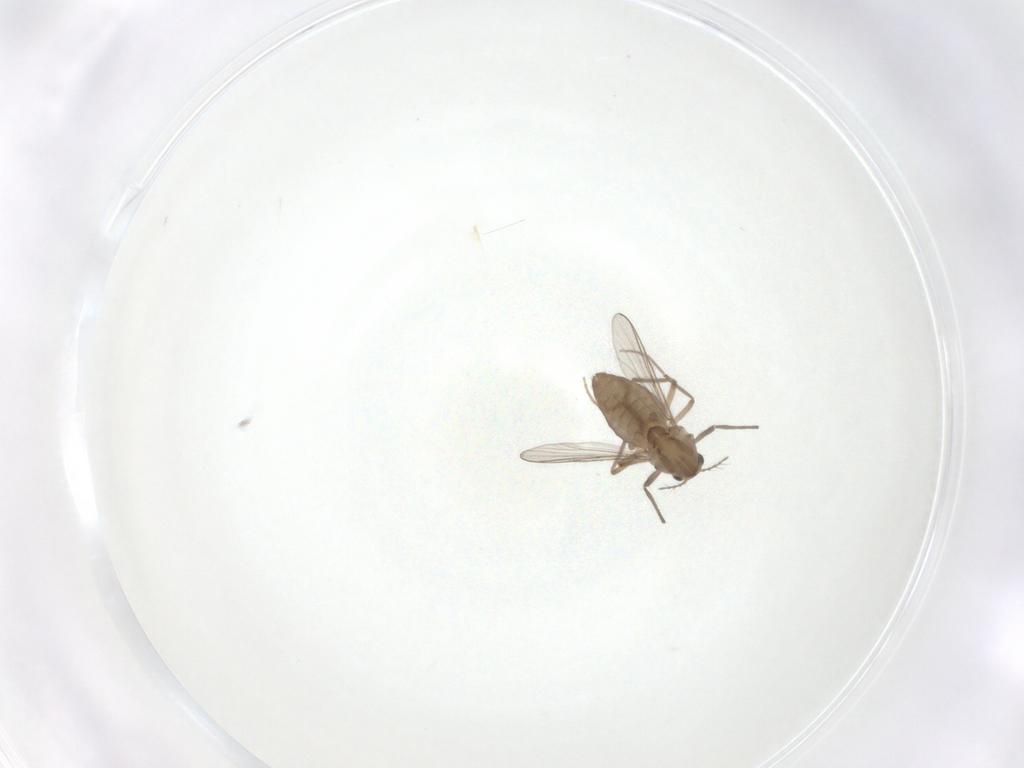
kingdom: Animalia
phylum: Arthropoda
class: Insecta
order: Diptera
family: Chironomidae
